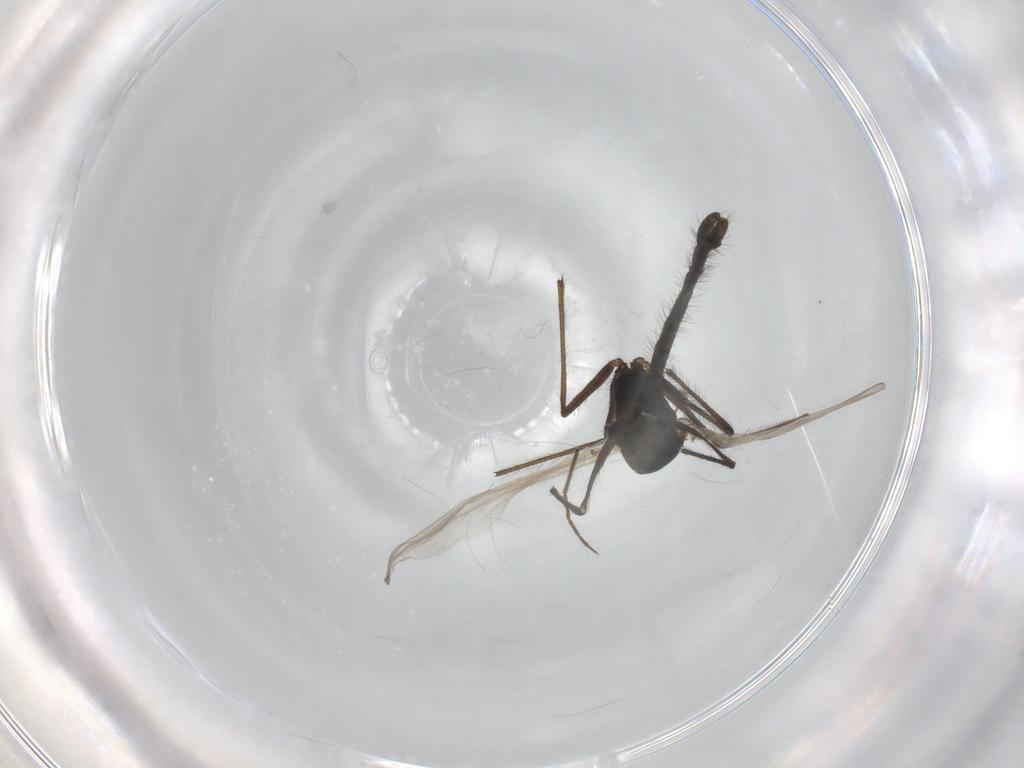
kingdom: Animalia
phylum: Arthropoda
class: Insecta
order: Diptera
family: Chironomidae
